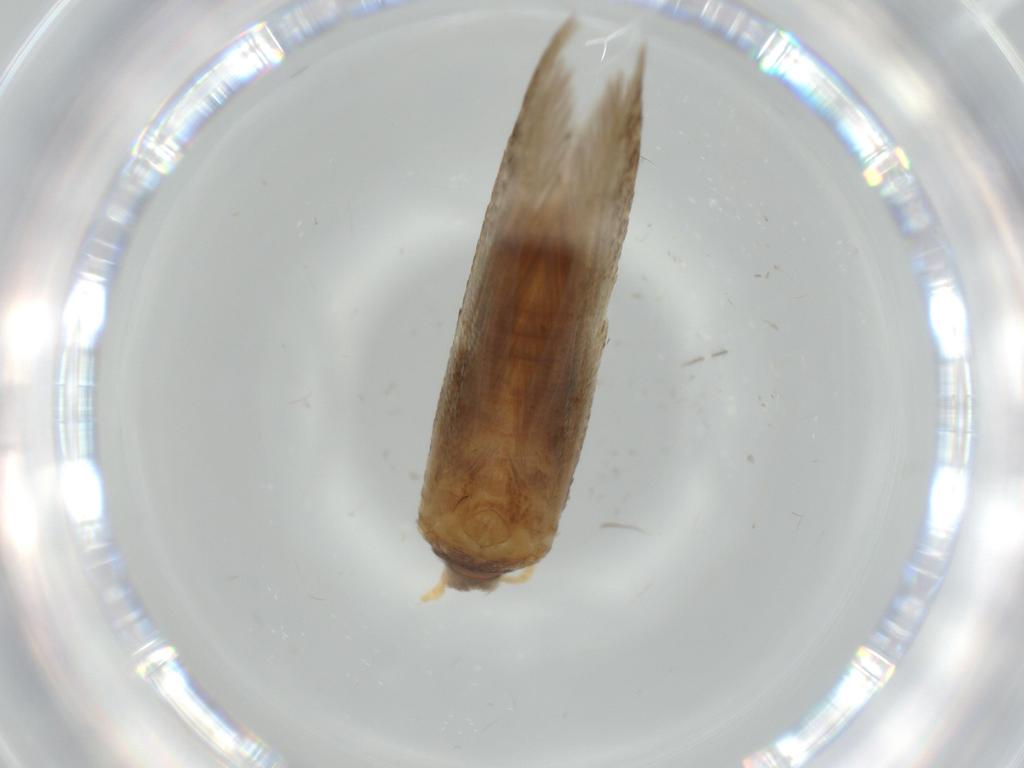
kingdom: Animalia
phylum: Arthropoda
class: Insecta
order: Lepidoptera
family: Coleophoridae
